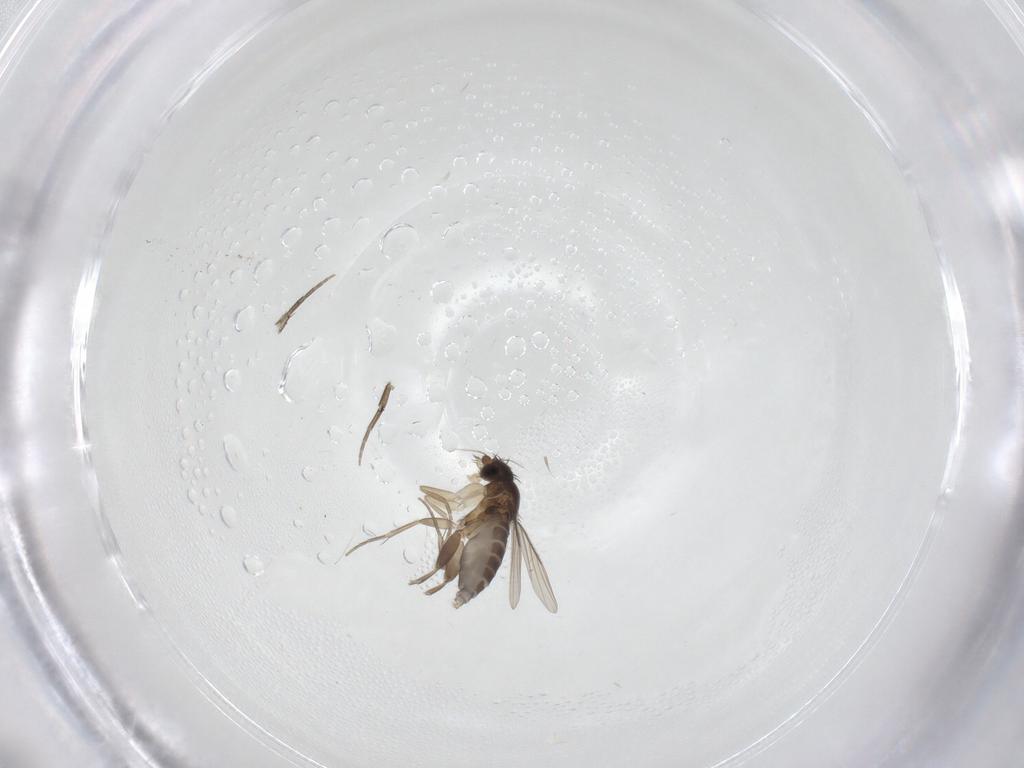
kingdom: Animalia
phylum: Arthropoda
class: Insecta
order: Diptera
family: Phoridae
